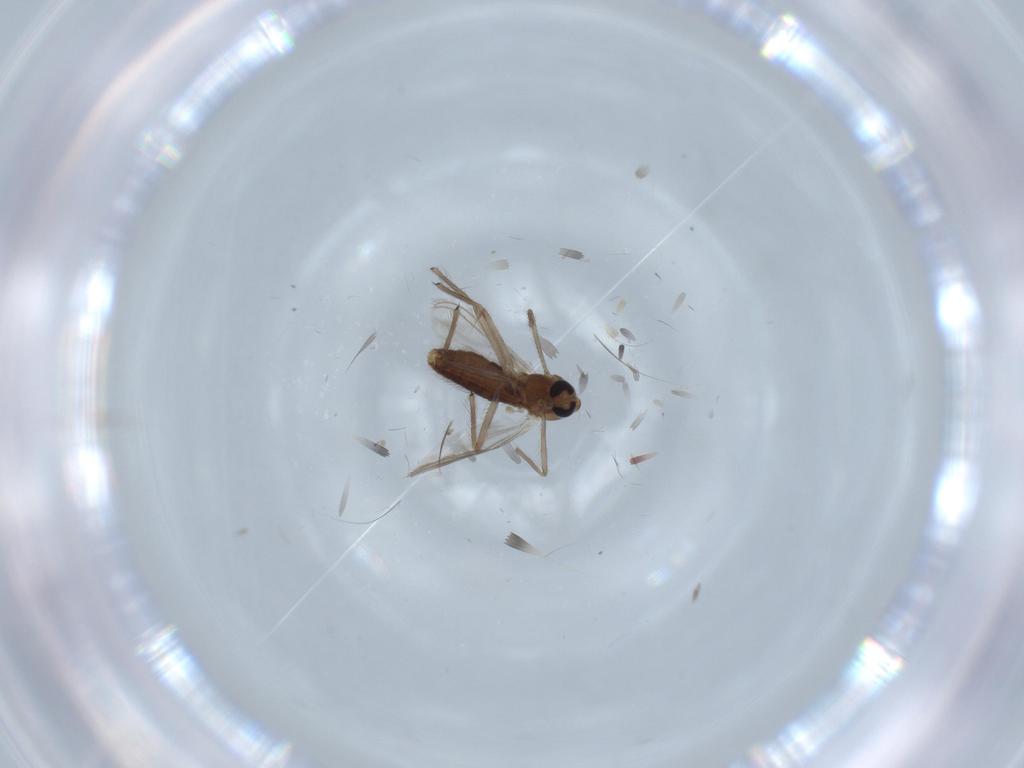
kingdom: Animalia
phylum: Arthropoda
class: Insecta
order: Diptera
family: Chironomidae
